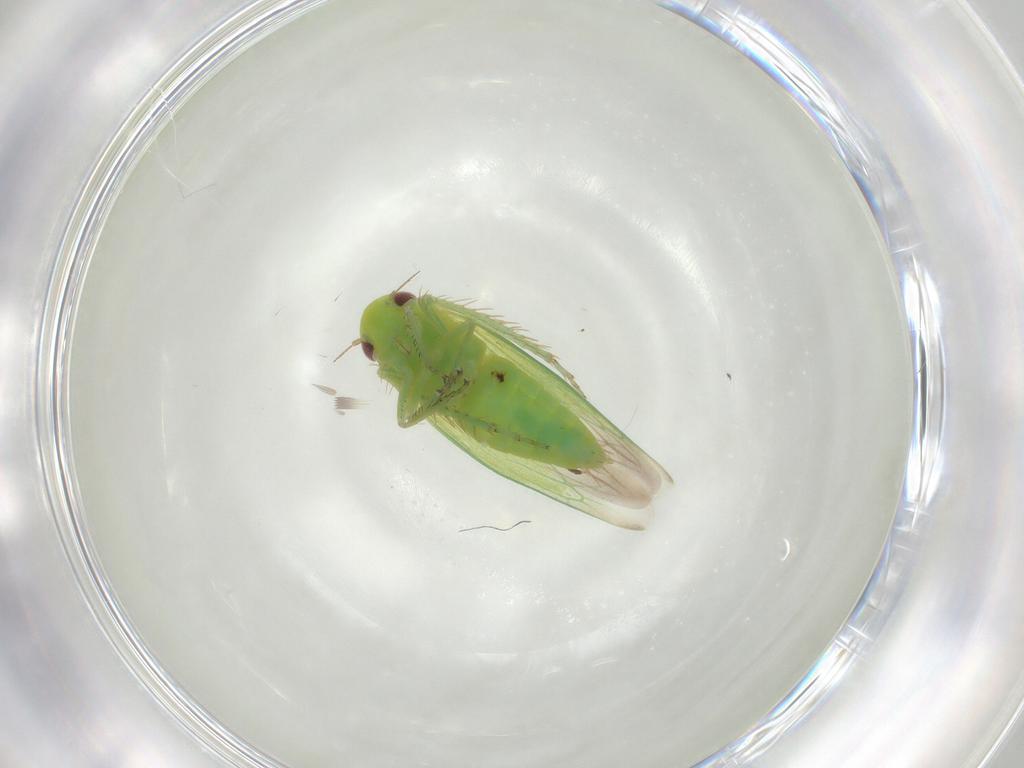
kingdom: Animalia
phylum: Arthropoda
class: Insecta
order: Hemiptera
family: Cicadellidae
